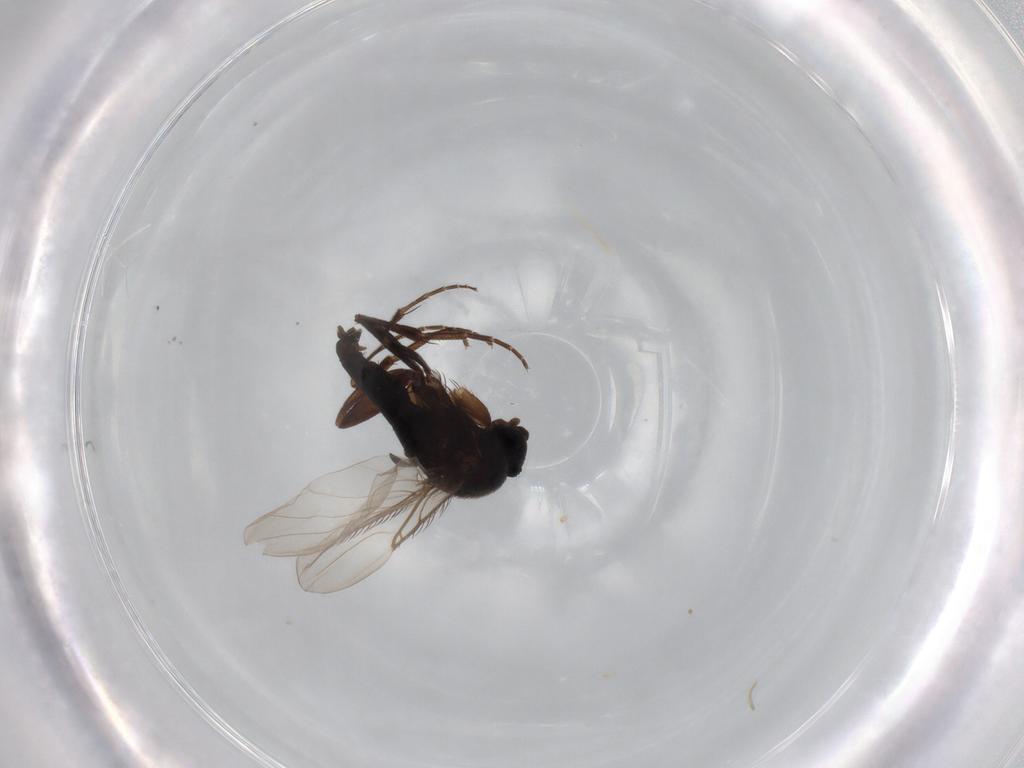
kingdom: Animalia
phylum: Arthropoda
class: Insecta
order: Diptera
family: Phoridae
